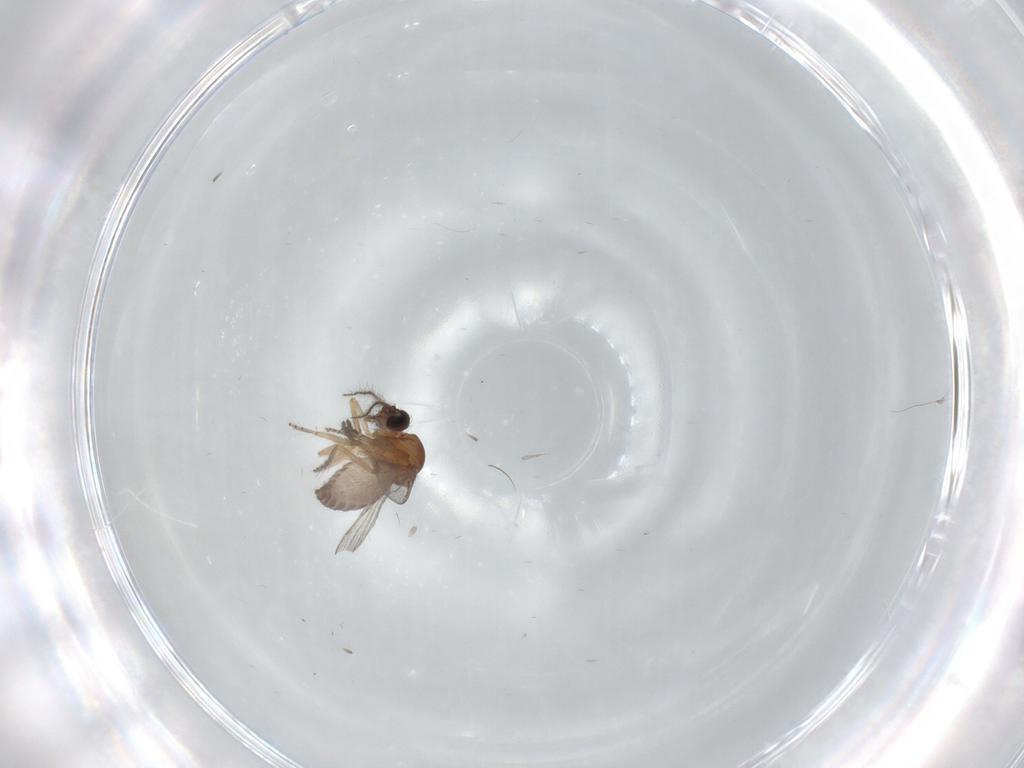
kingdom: Animalia
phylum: Arthropoda
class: Insecta
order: Diptera
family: Ceratopogonidae
